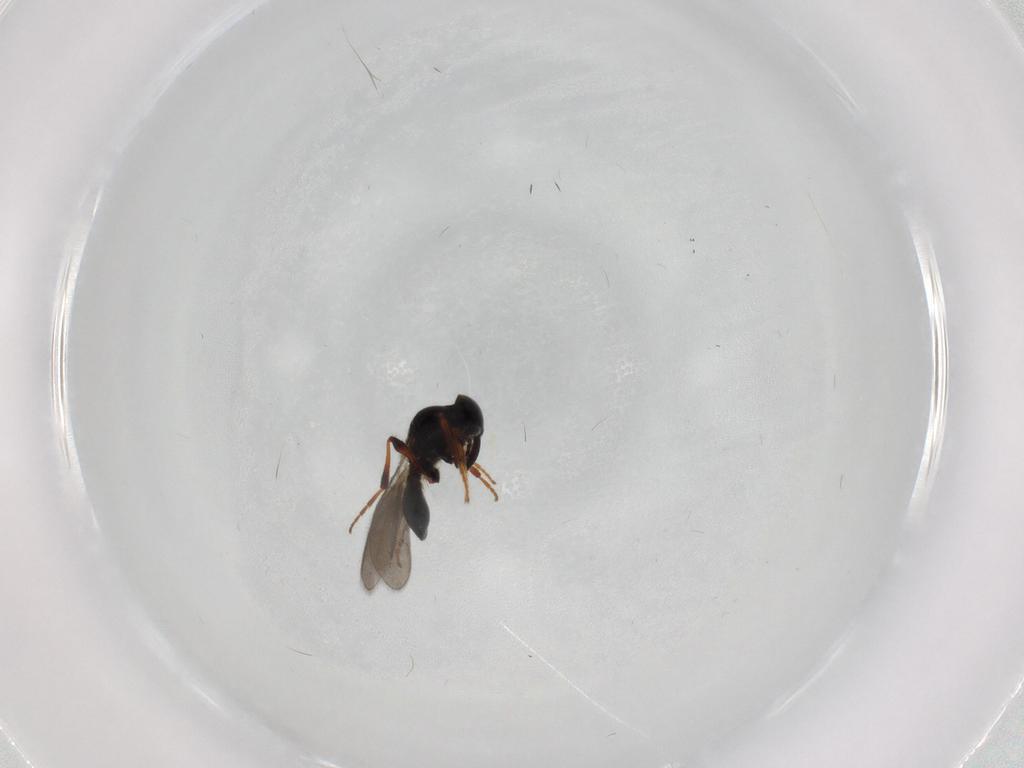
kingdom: Animalia
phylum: Arthropoda
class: Insecta
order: Hymenoptera
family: Platygastridae
